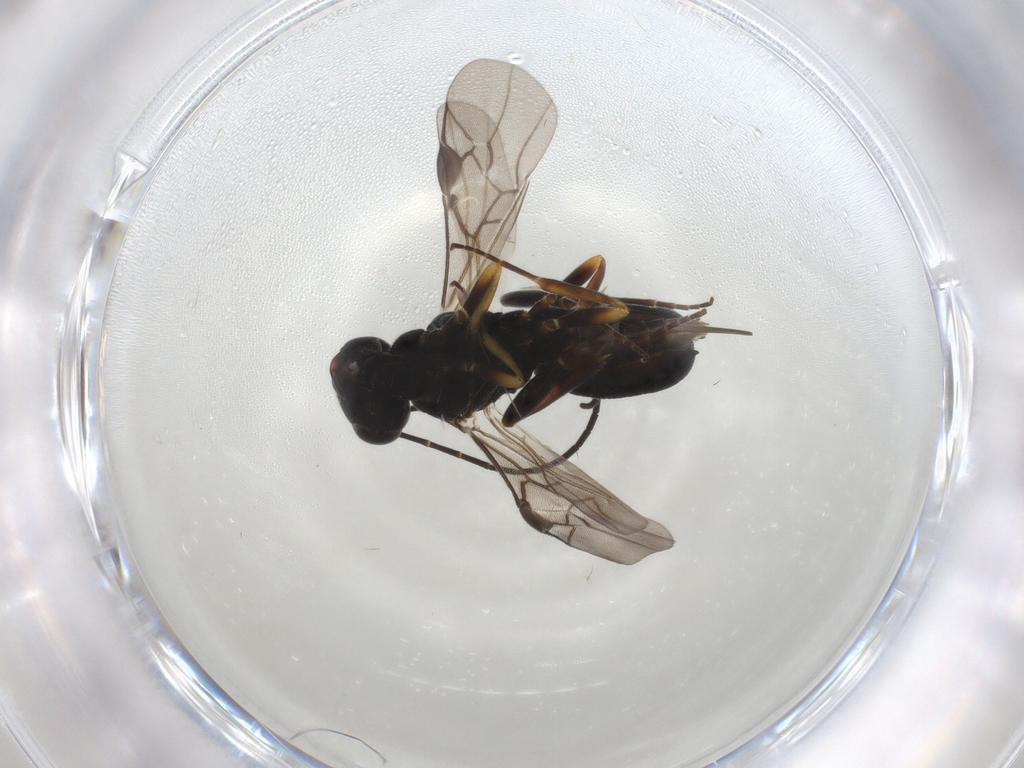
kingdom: Animalia
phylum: Arthropoda
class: Insecta
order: Hymenoptera
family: Braconidae
